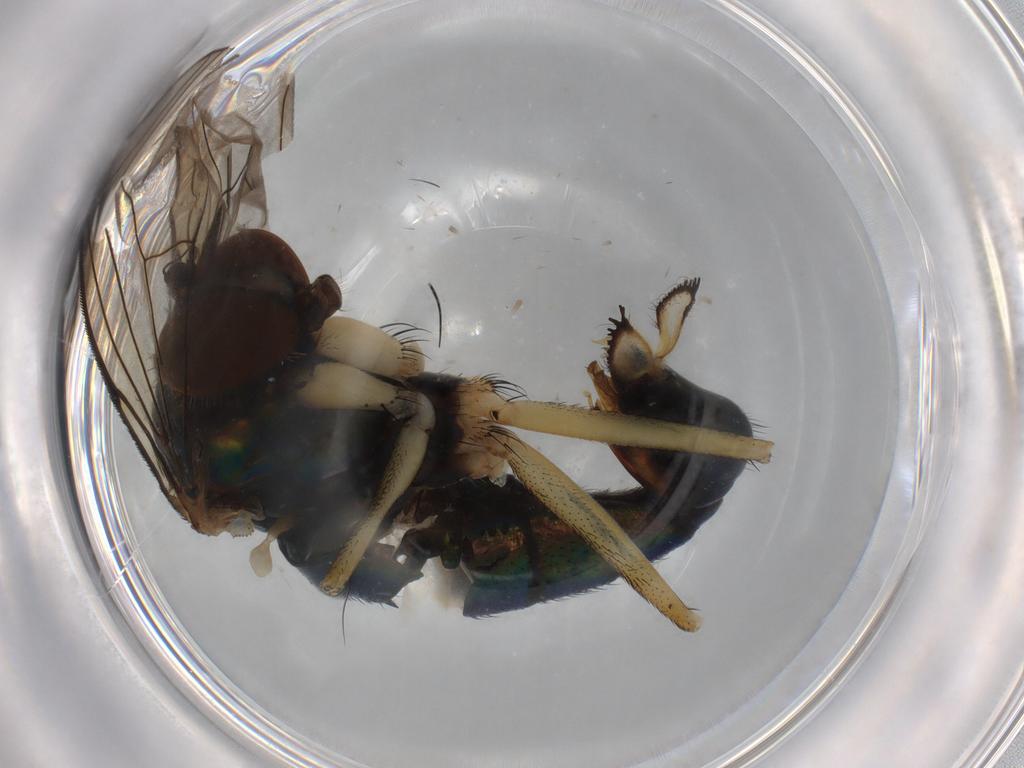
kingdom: Animalia
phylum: Arthropoda
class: Insecta
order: Diptera
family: Dolichopodidae
